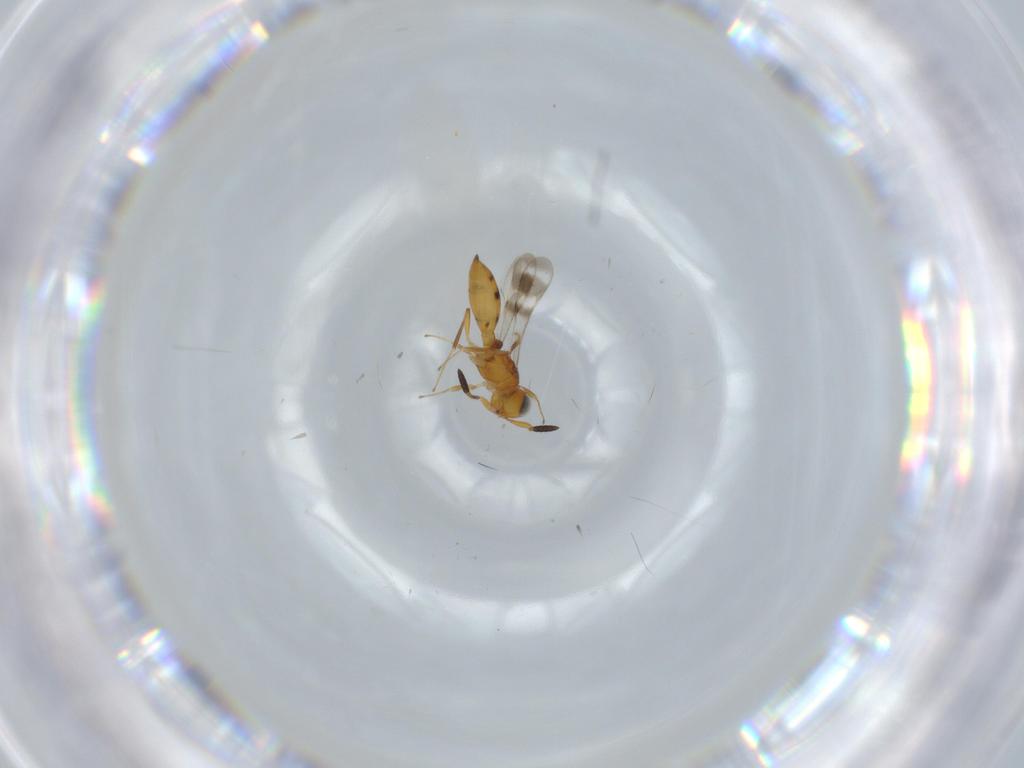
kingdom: Animalia
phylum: Arthropoda
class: Insecta
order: Hymenoptera
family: Scelionidae
